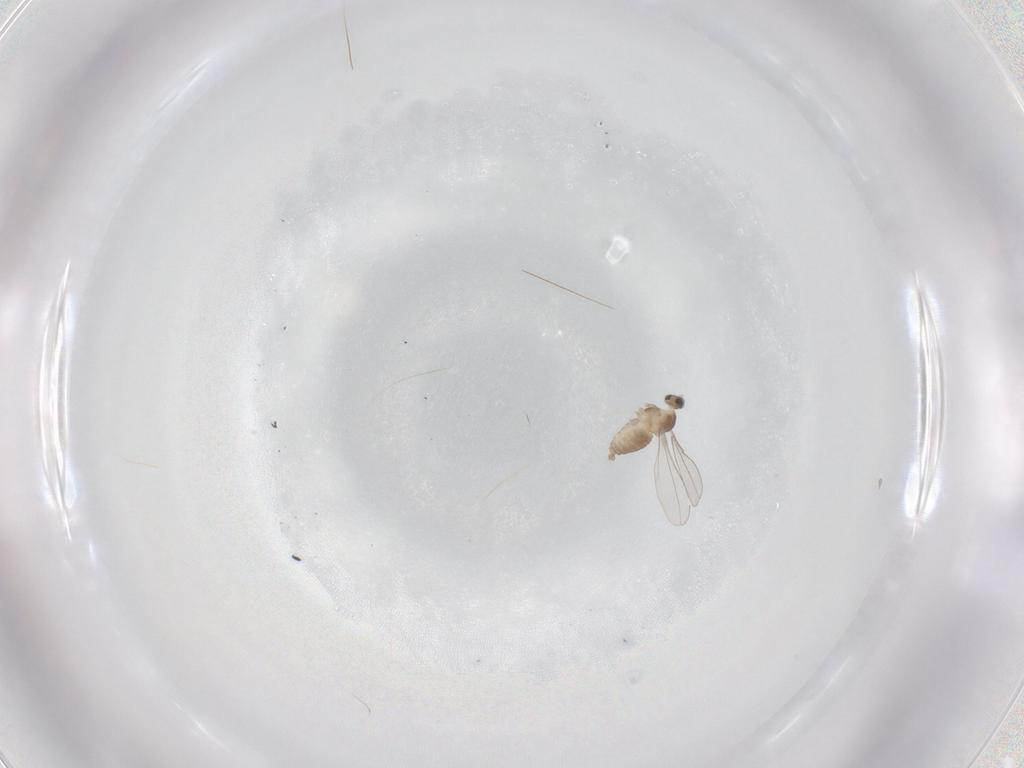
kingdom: Animalia
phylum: Arthropoda
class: Insecta
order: Diptera
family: Cecidomyiidae
